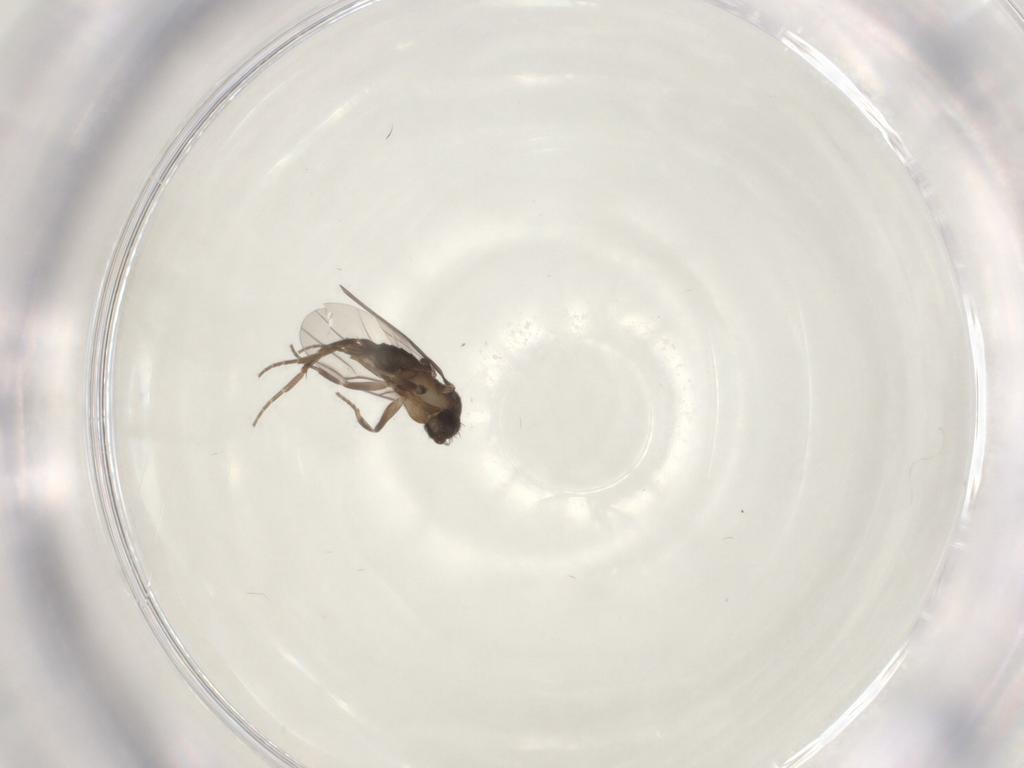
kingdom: Animalia
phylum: Arthropoda
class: Insecta
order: Diptera
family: Phoridae
